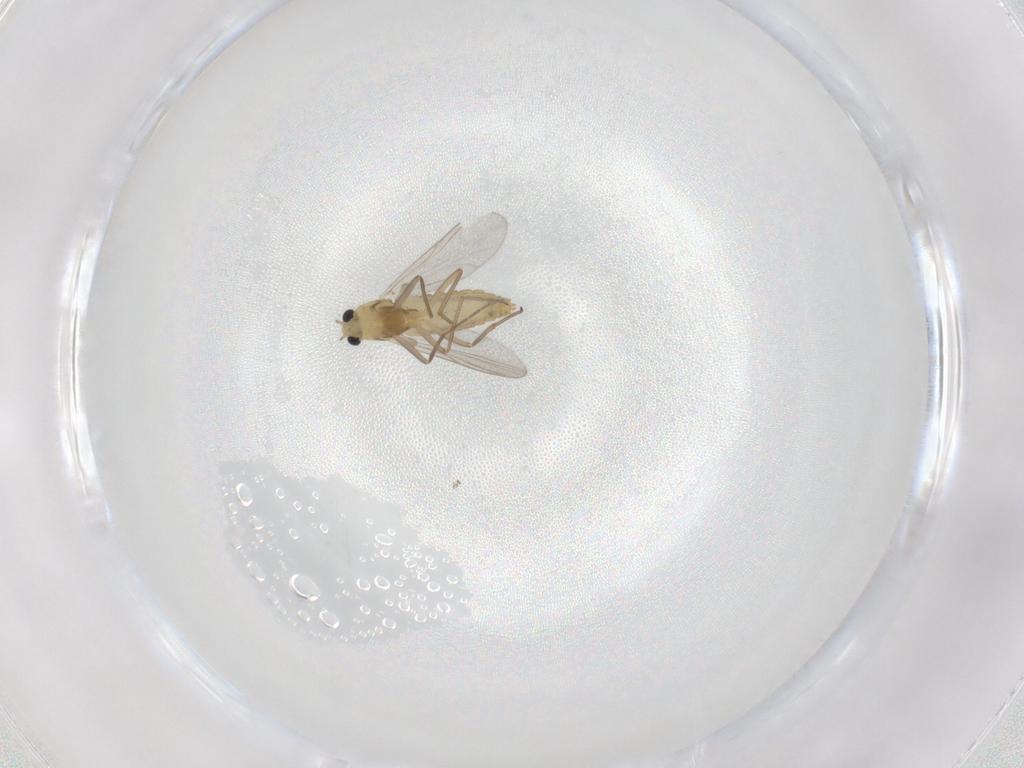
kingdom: Animalia
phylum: Arthropoda
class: Insecta
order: Diptera
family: Chironomidae
